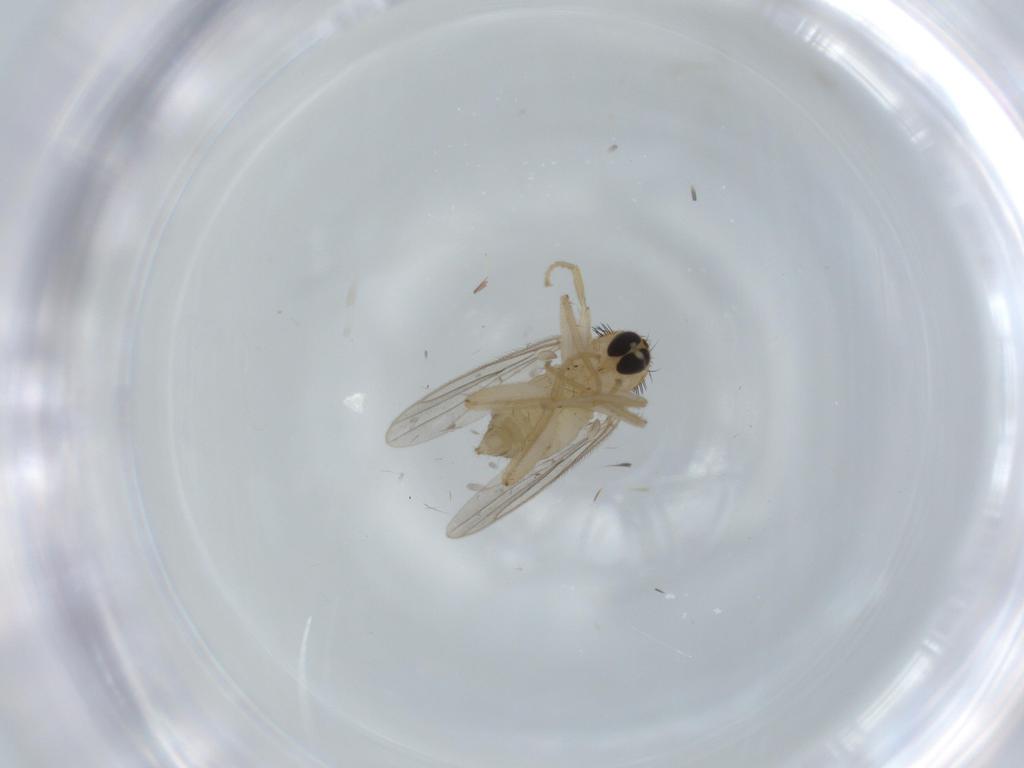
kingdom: Animalia
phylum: Arthropoda
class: Insecta
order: Diptera
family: Hybotidae
